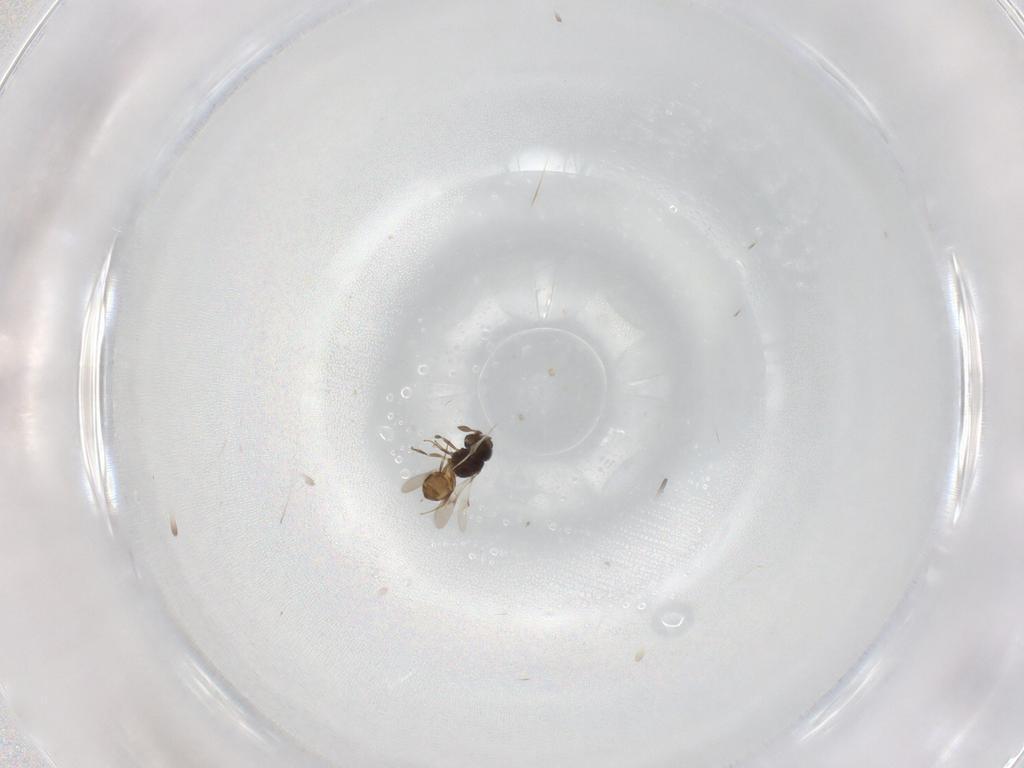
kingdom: Animalia
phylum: Arthropoda
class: Insecta
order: Hymenoptera
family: Scelionidae
